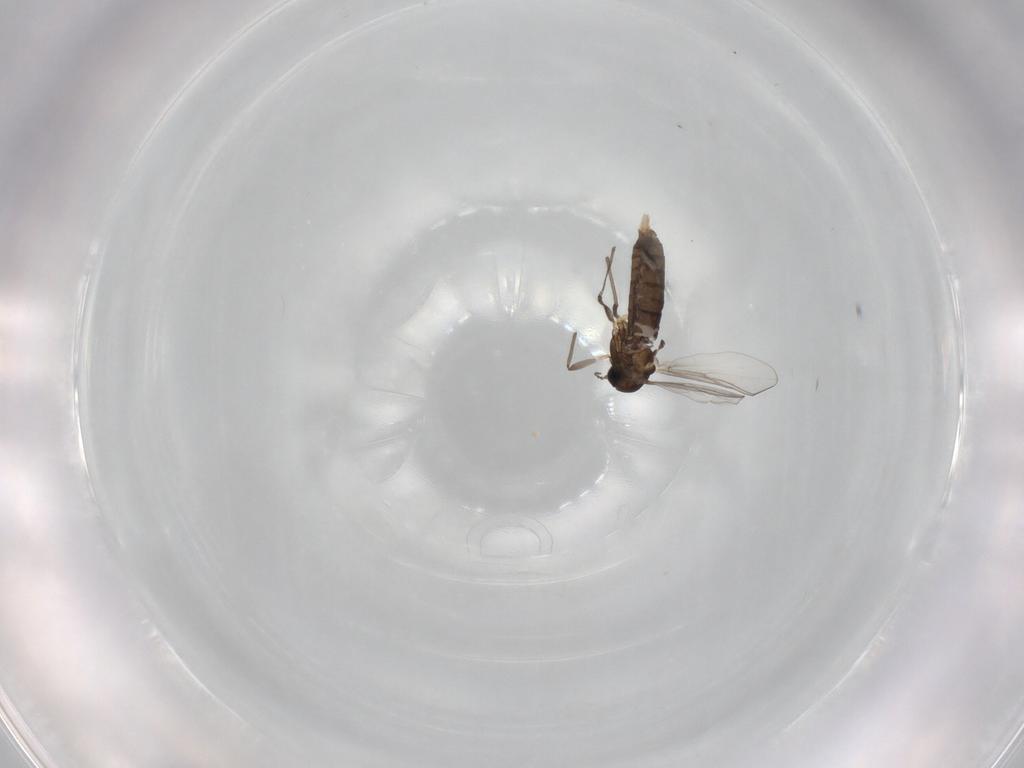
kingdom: Animalia
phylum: Arthropoda
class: Insecta
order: Diptera
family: Chironomidae
